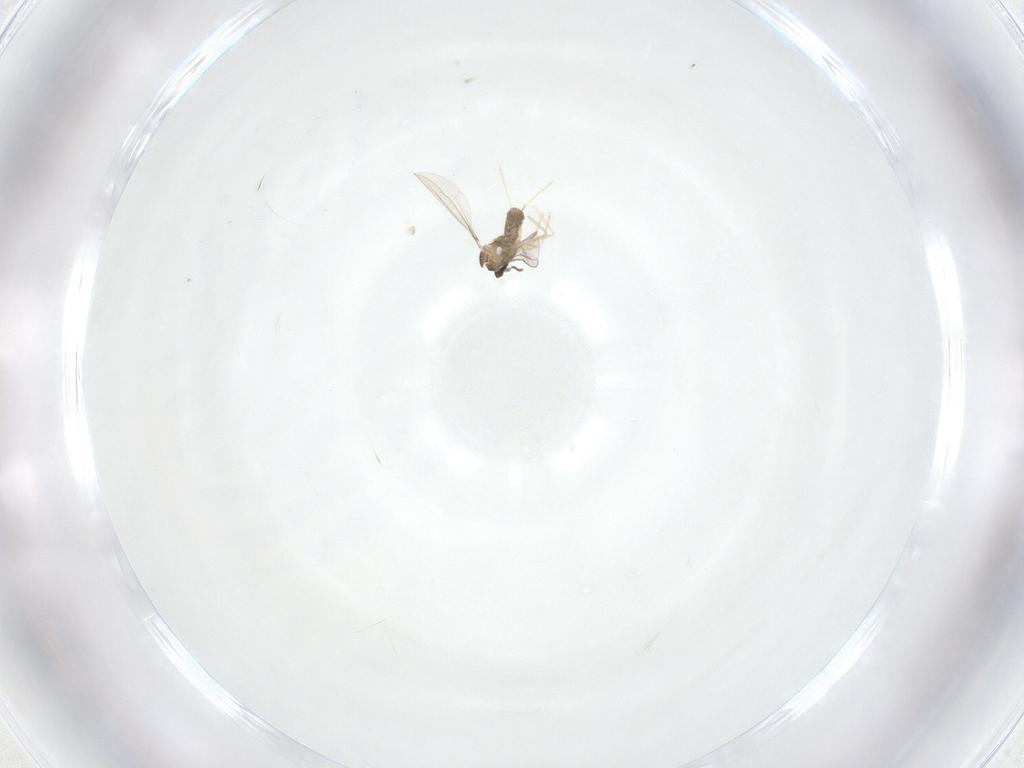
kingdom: Animalia
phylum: Arthropoda
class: Insecta
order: Diptera
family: Cecidomyiidae
